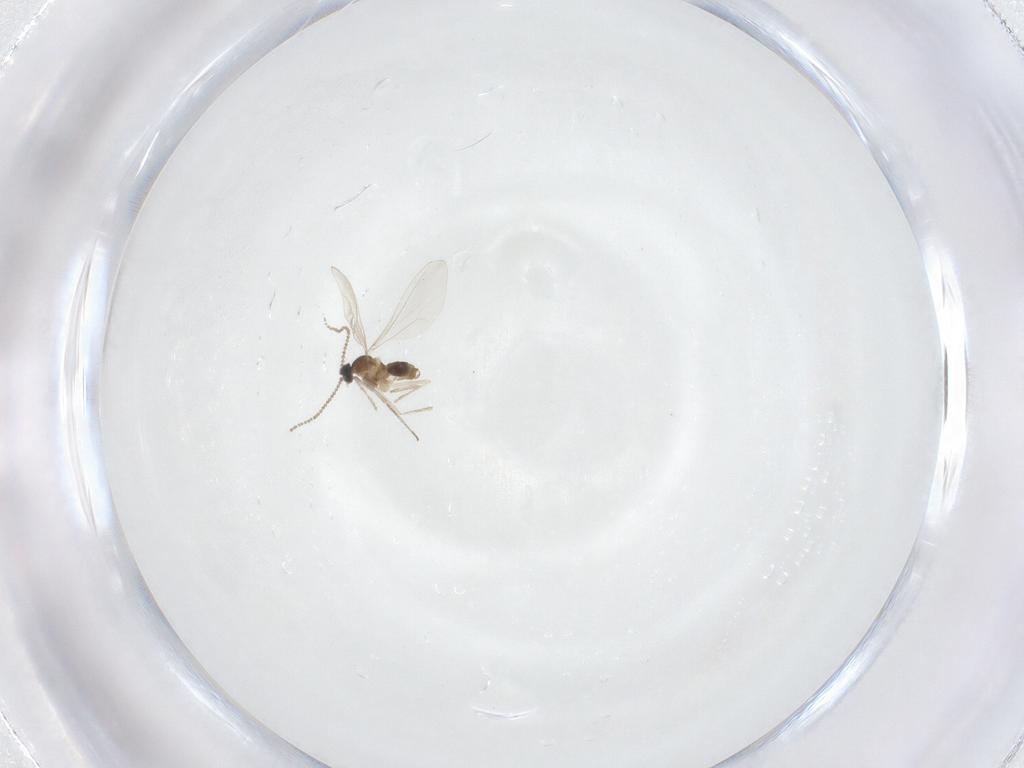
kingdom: Animalia
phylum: Arthropoda
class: Insecta
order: Diptera
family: Cecidomyiidae
